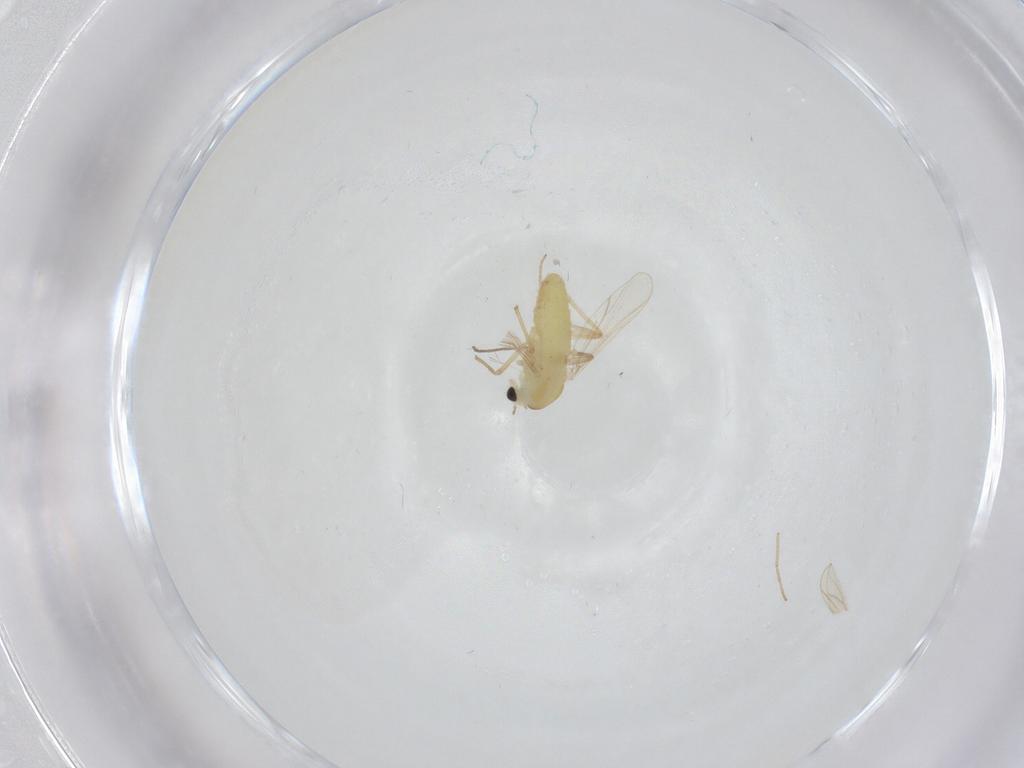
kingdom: Animalia
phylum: Arthropoda
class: Insecta
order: Diptera
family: Chironomidae
